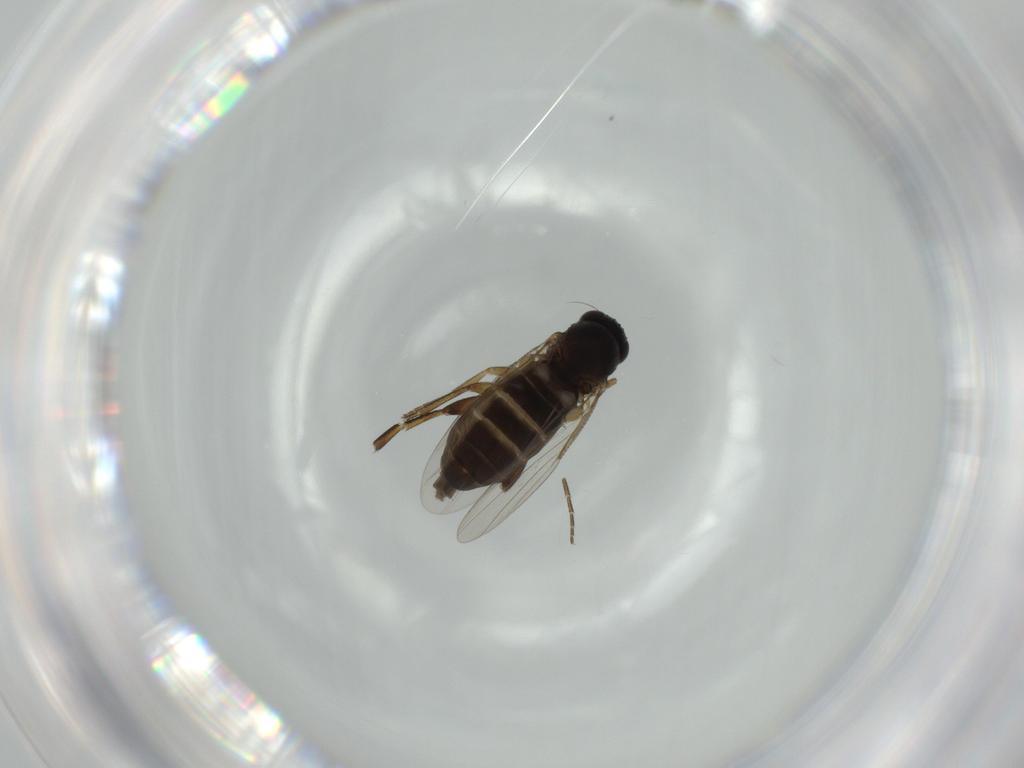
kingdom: Animalia
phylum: Arthropoda
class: Insecta
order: Diptera
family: Phoridae
